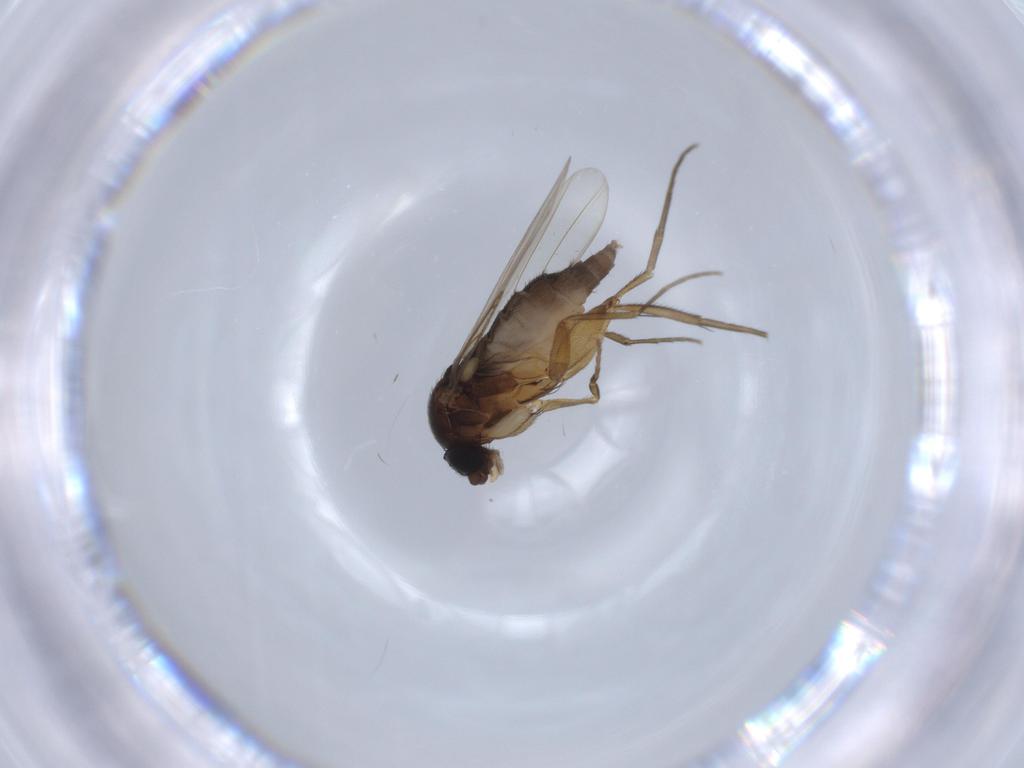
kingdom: Animalia
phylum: Arthropoda
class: Insecta
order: Diptera
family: Phoridae
